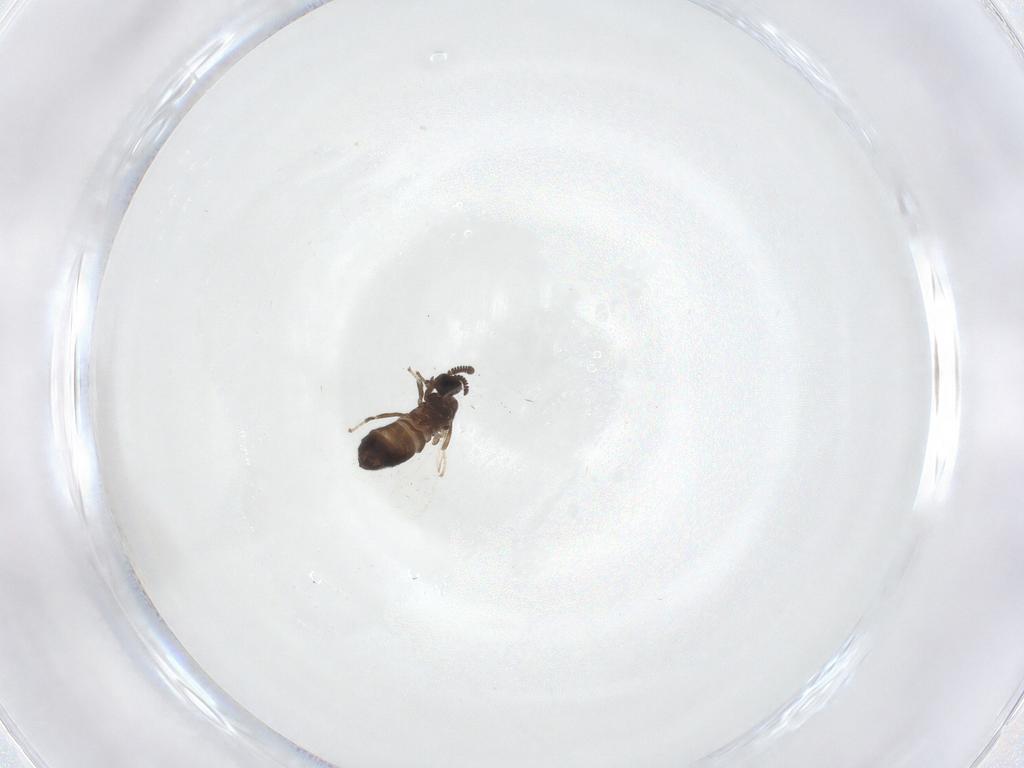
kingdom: Animalia
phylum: Arthropoda
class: Insecta
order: Diptera
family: Scatopsidae
